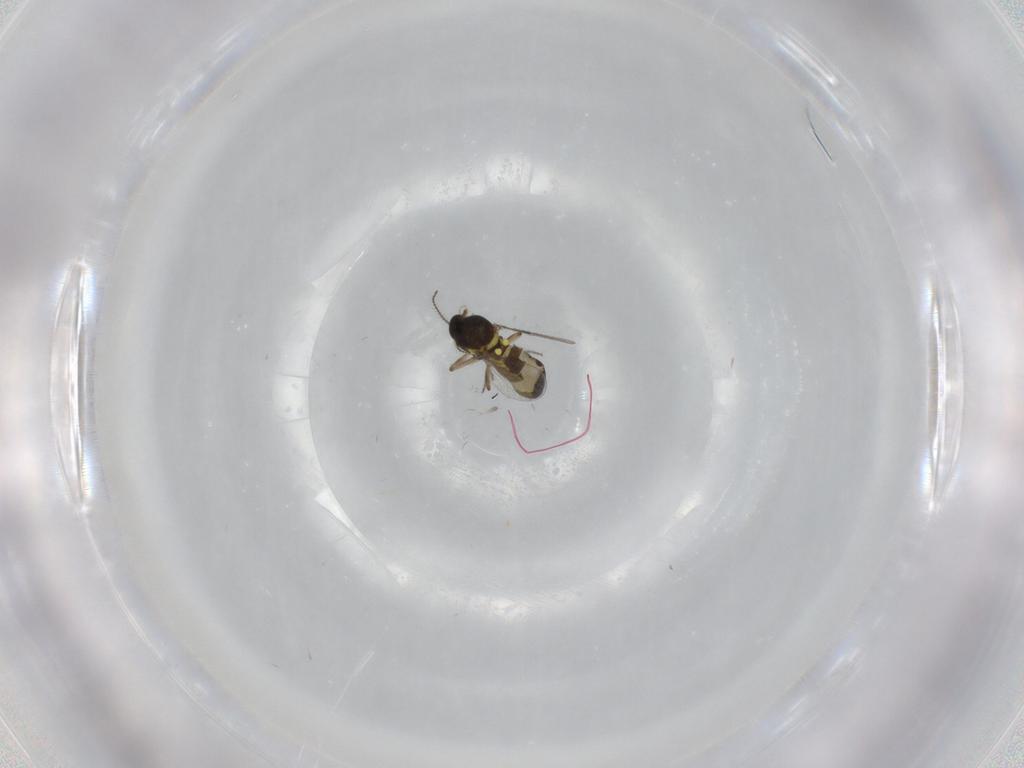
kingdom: Animalia
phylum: Arthropoda
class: Insecta
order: Diptera
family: Ceratopogonidae
